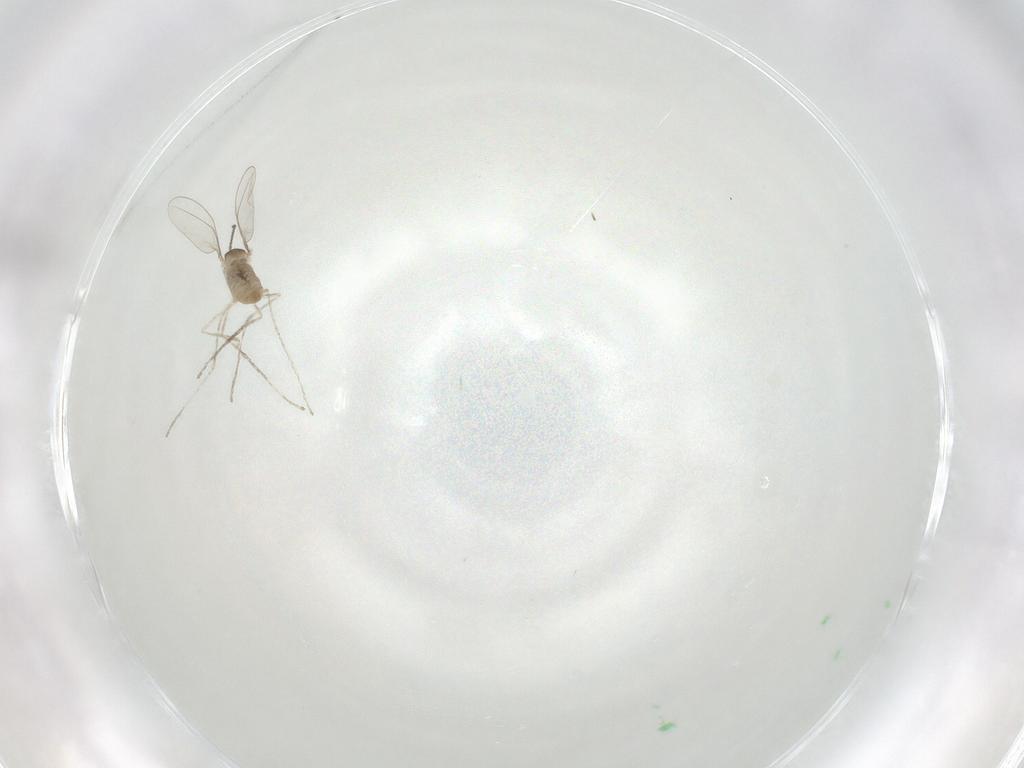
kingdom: Animalia
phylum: Arthropoda
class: Insecta
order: Diptera
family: Cecidomyiidae
